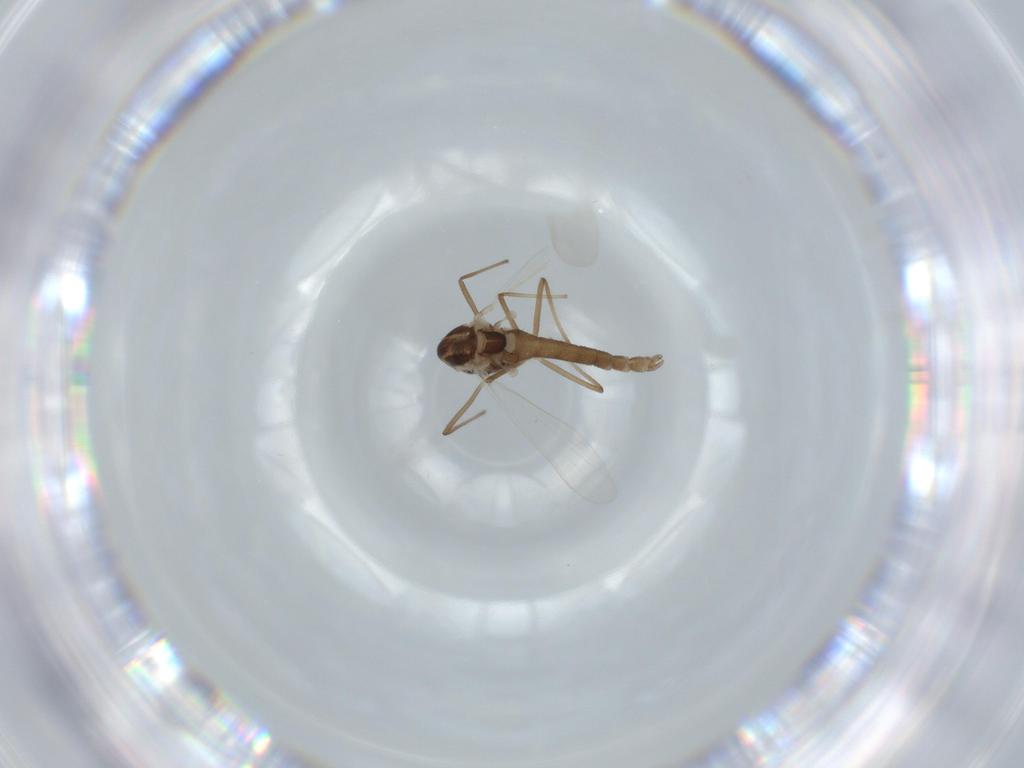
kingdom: Animalia
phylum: Arthropoda
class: Insecta
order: Diptera
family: Chironomidae
